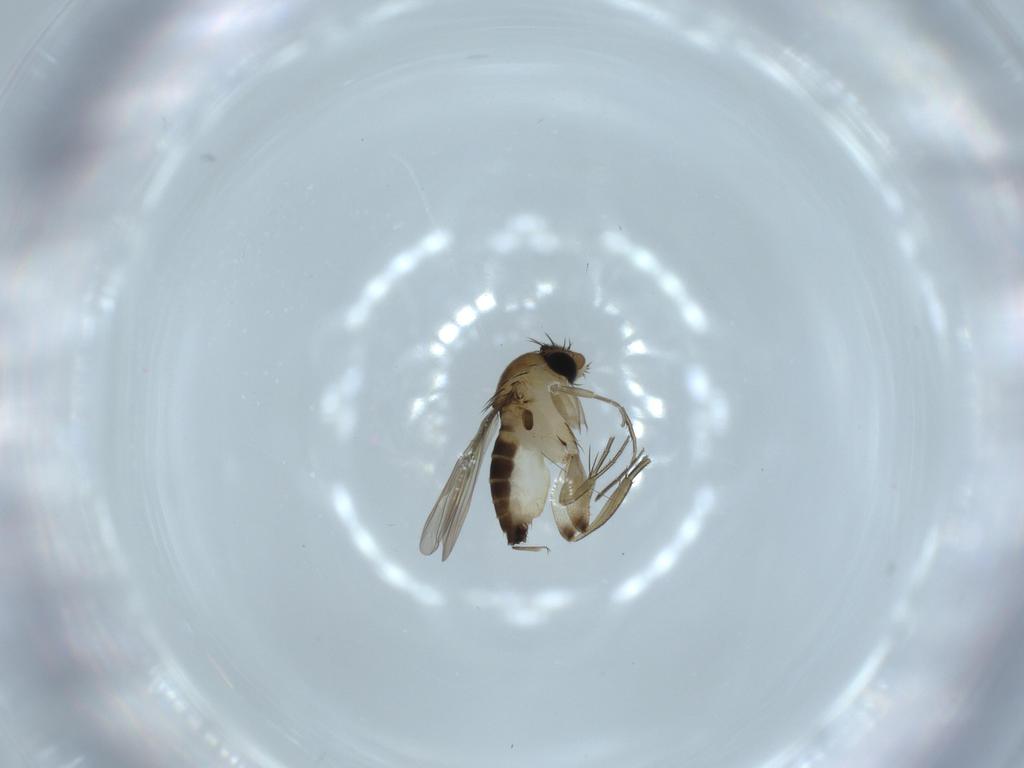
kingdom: Animalia
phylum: Arthropoda
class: Insecta
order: Diptera
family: Phoridae
